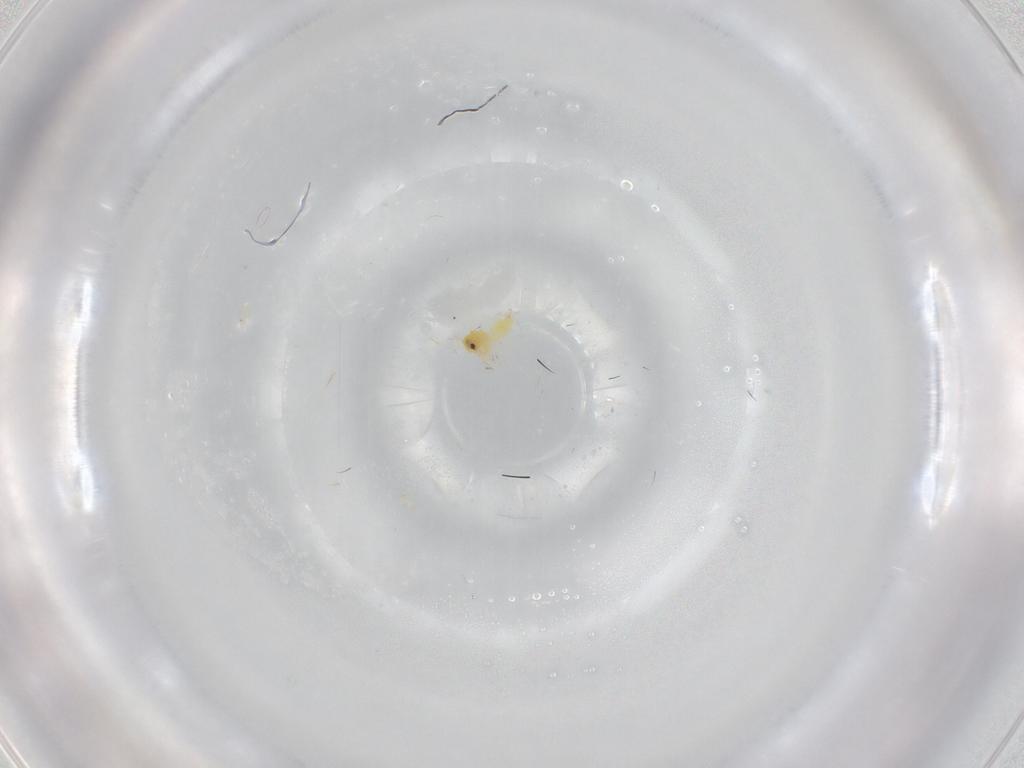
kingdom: Animalia
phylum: Arthropoda
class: Insecta
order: Hemiptera
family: Aleyrodidae
